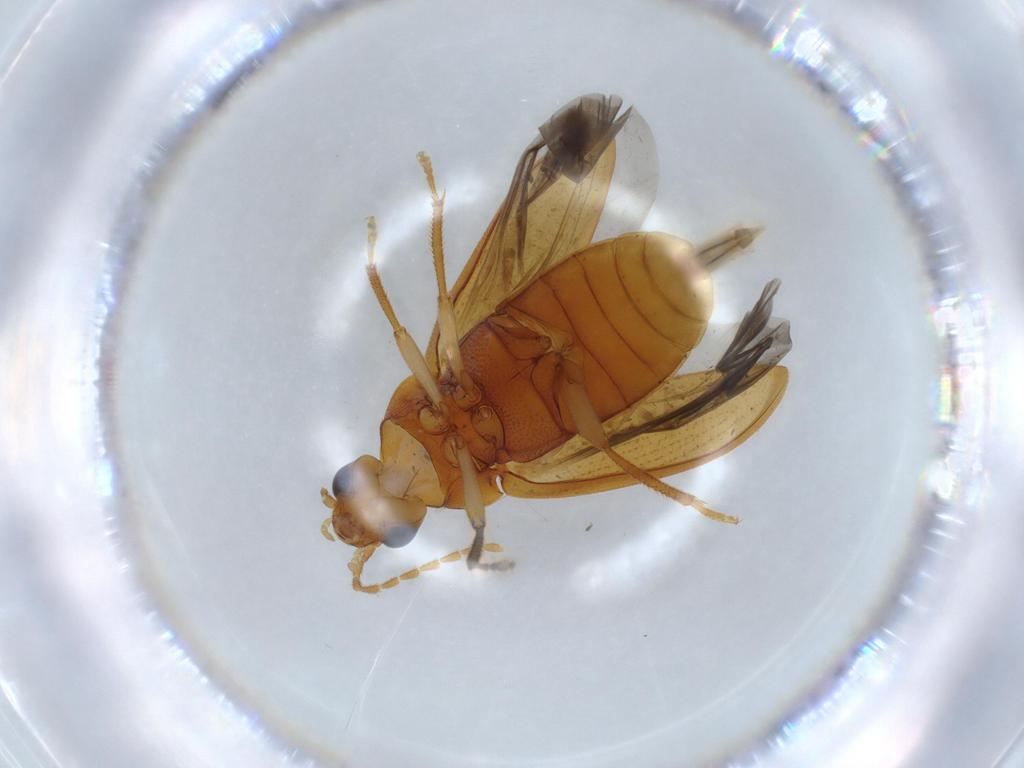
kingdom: Animalia
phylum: Arthropoda
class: Insecta
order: Coleoptera
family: Ptilodactylidae
